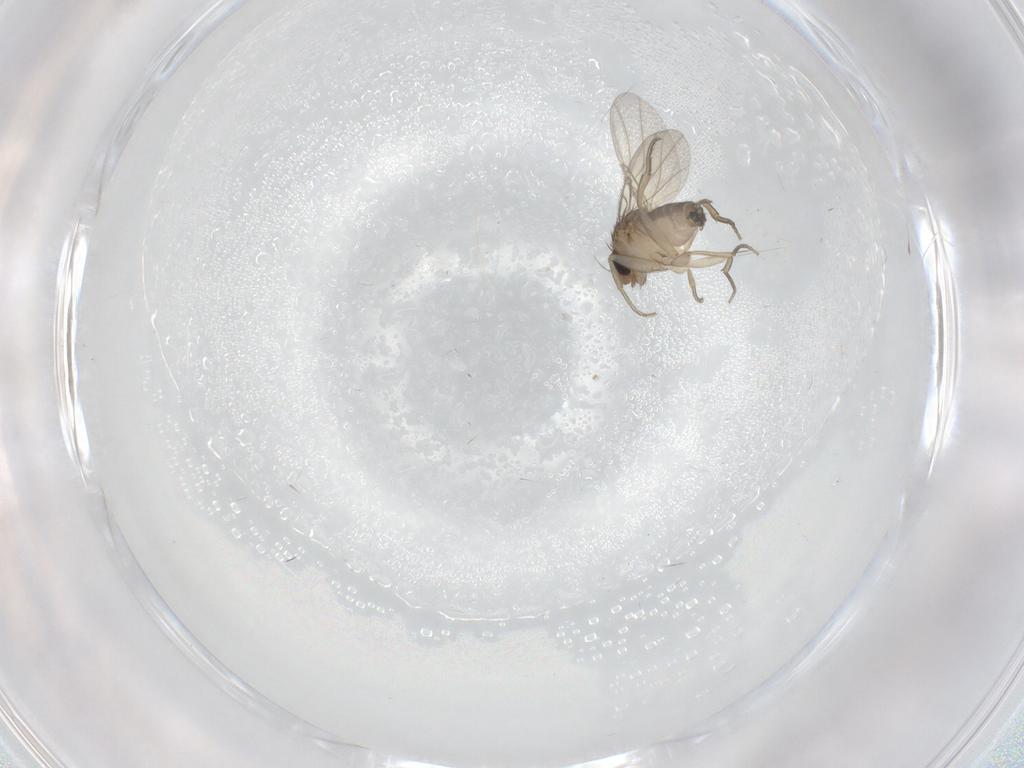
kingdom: Animalia
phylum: Arthropoda
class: Insecta
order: Diptera
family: Phoridae
